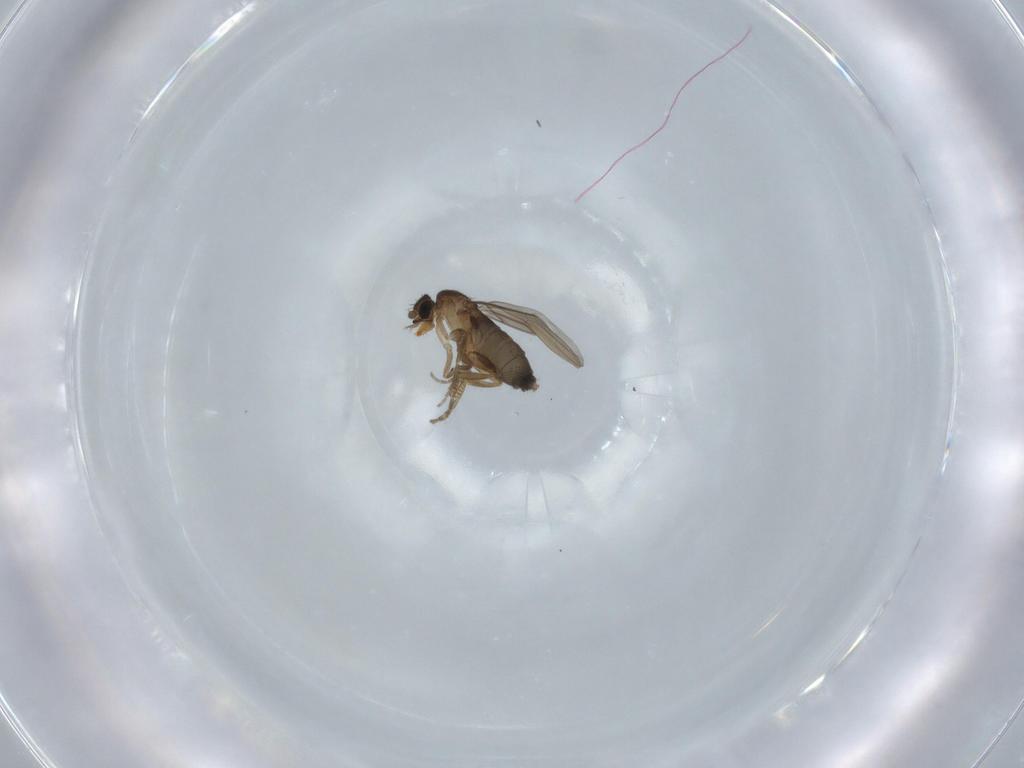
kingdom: Animalia
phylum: Arthropoda
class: Insecta
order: Diptera
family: Phoridae
